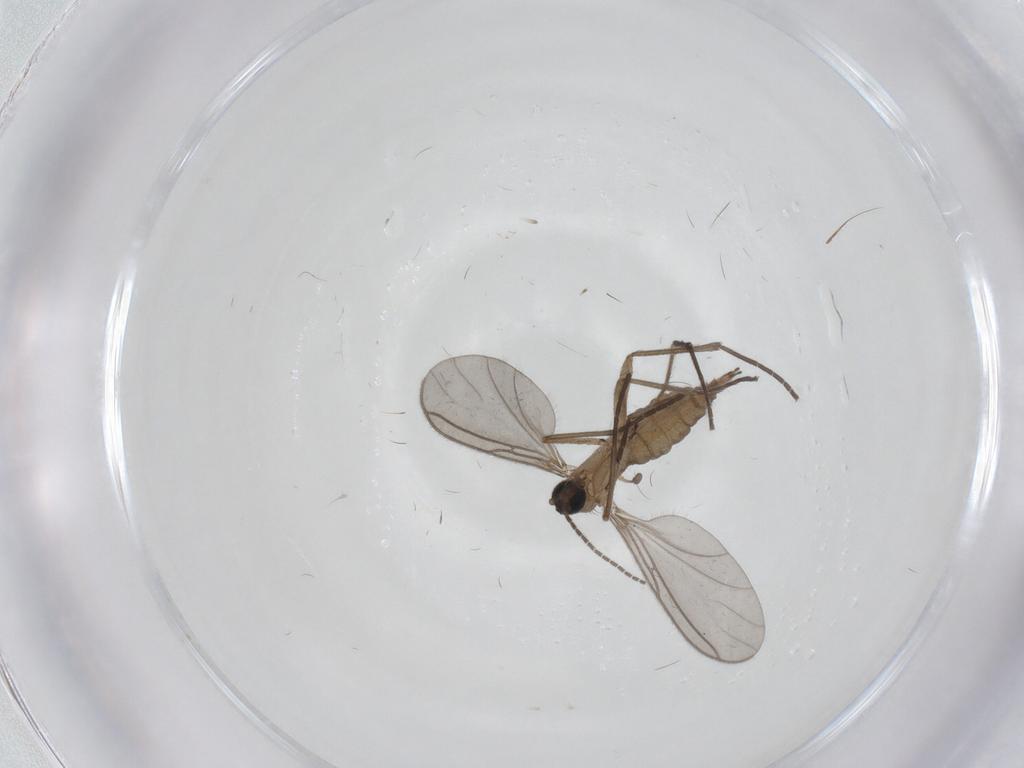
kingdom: Animalia
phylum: Arthropoda
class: Insecta
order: Diptera
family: Sciaridae
